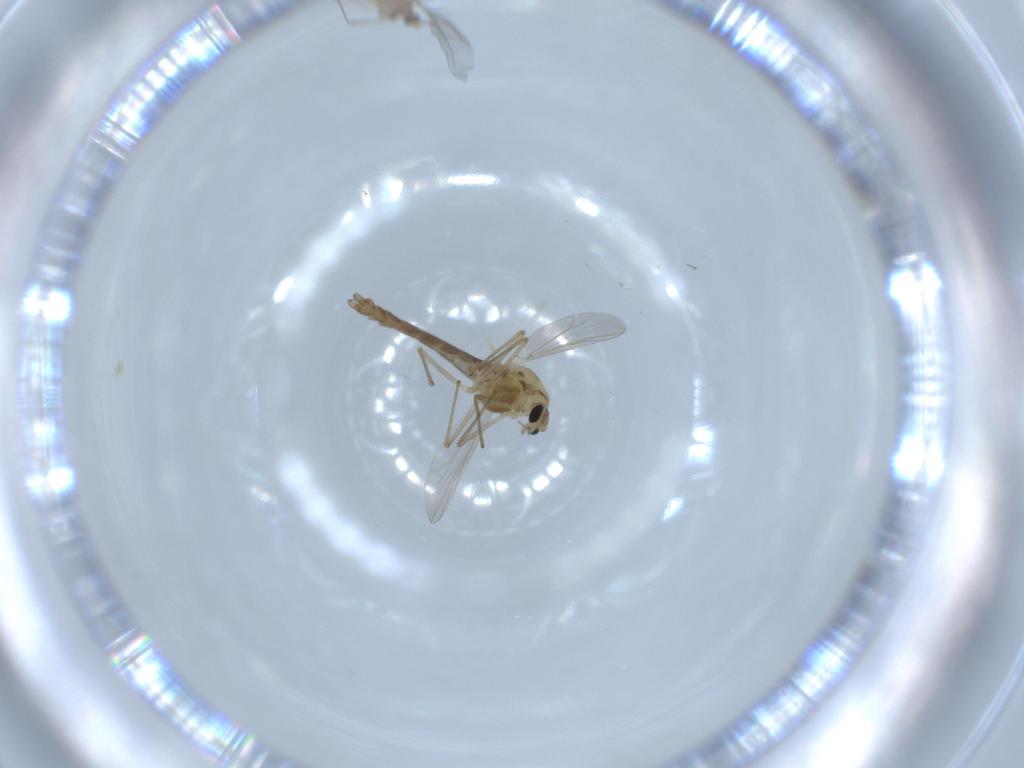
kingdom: Animalia
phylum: Arthropoda
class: Insecta
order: Diptera
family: Chironomidae
